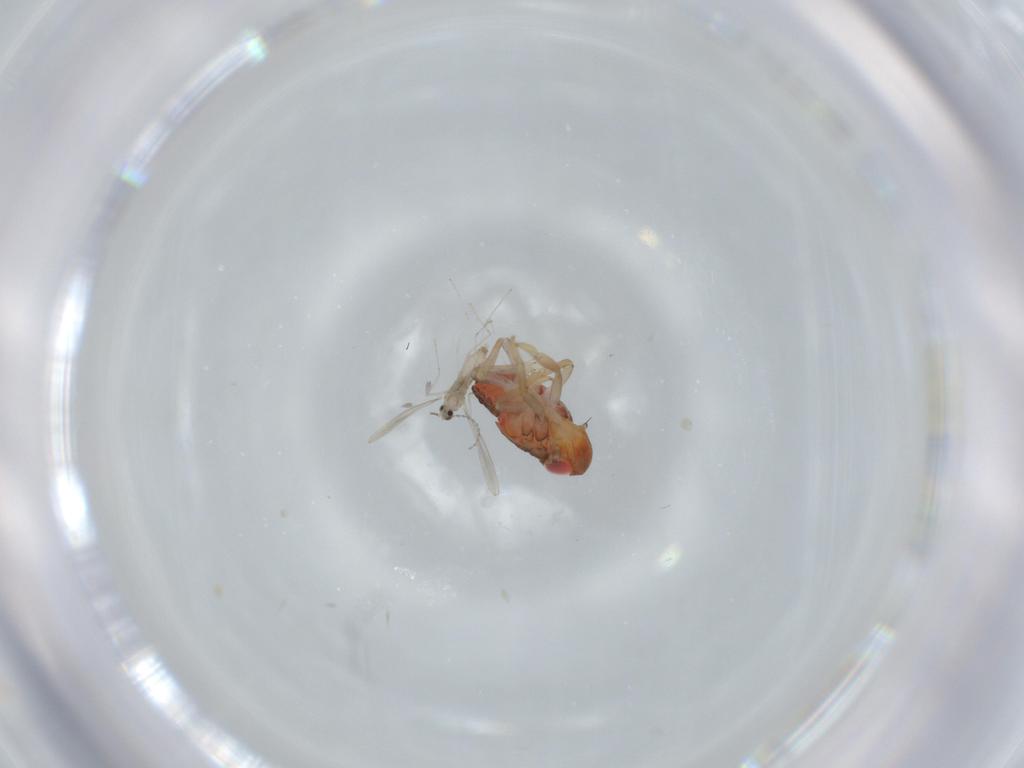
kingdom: Animalia
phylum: Arthropoda
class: Insecta
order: Hemiptera
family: Issidae
